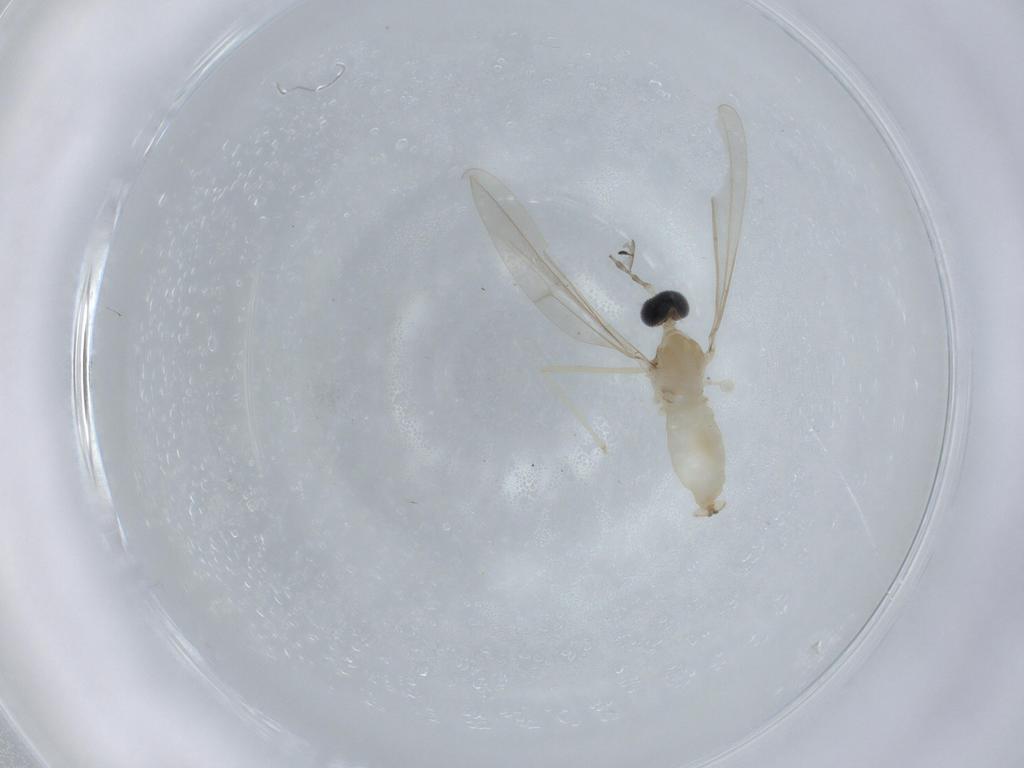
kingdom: Animalia
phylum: Arthropoda
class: Insecta
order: Diptera
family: Cecidomyiidae
